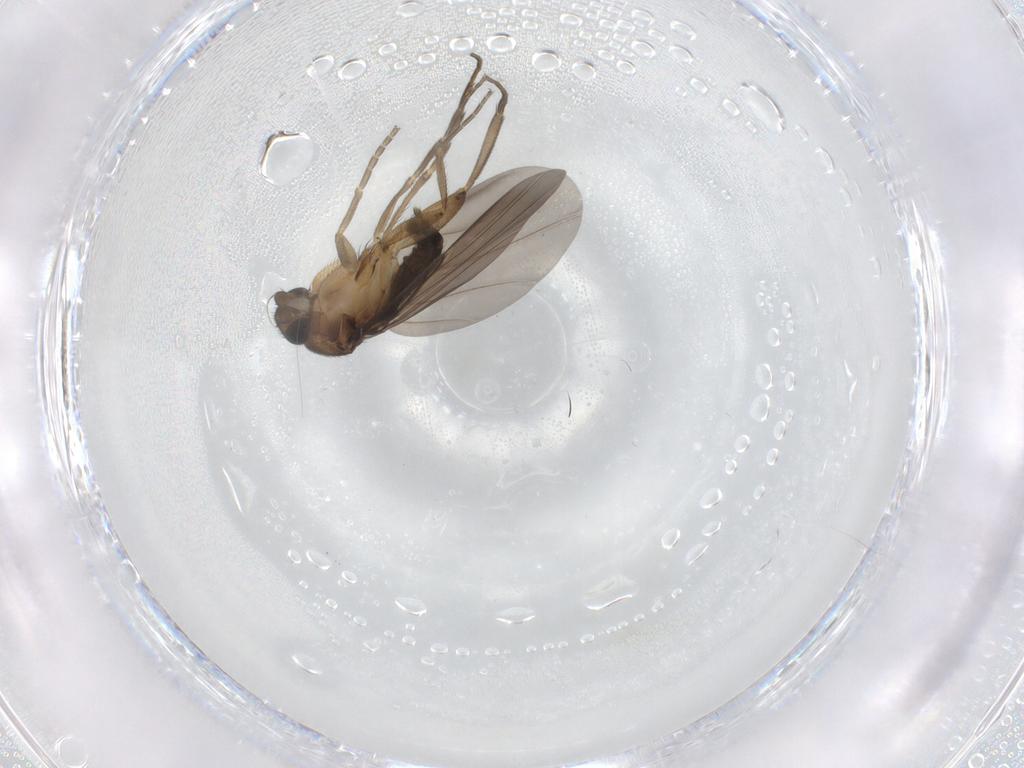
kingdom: Animalia
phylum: Arthropoda
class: Insecta
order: Diptera
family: Phoridae
